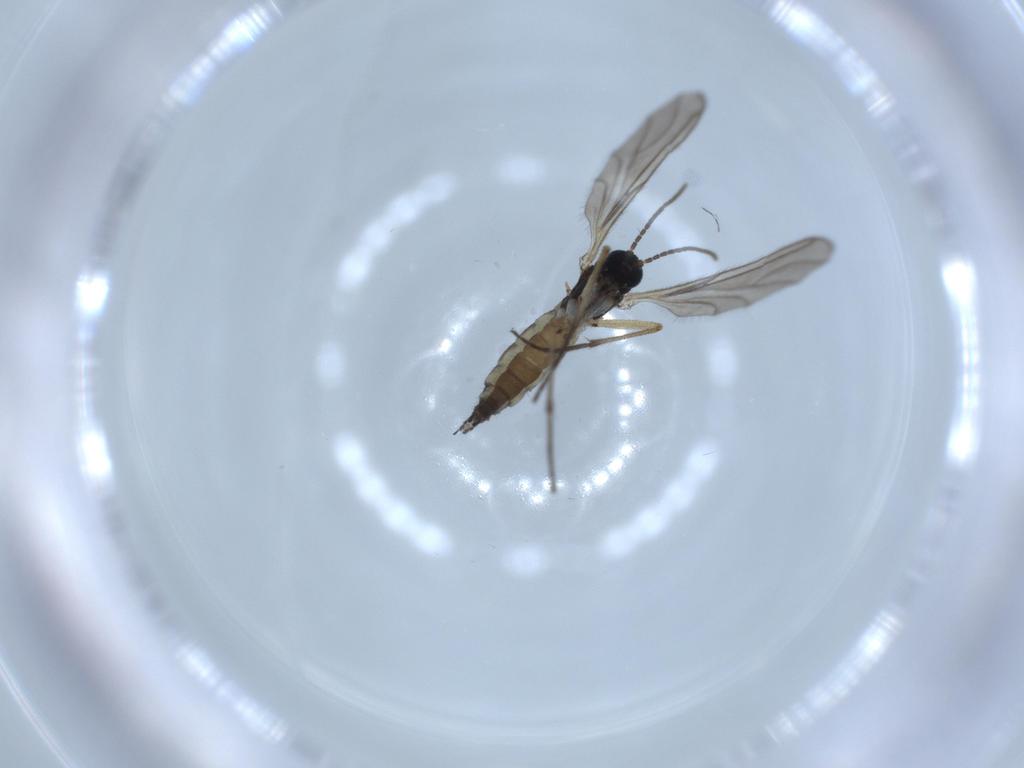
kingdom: Animalia
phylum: Arthropoda
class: Insecta
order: Diptera
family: Sciaridae
